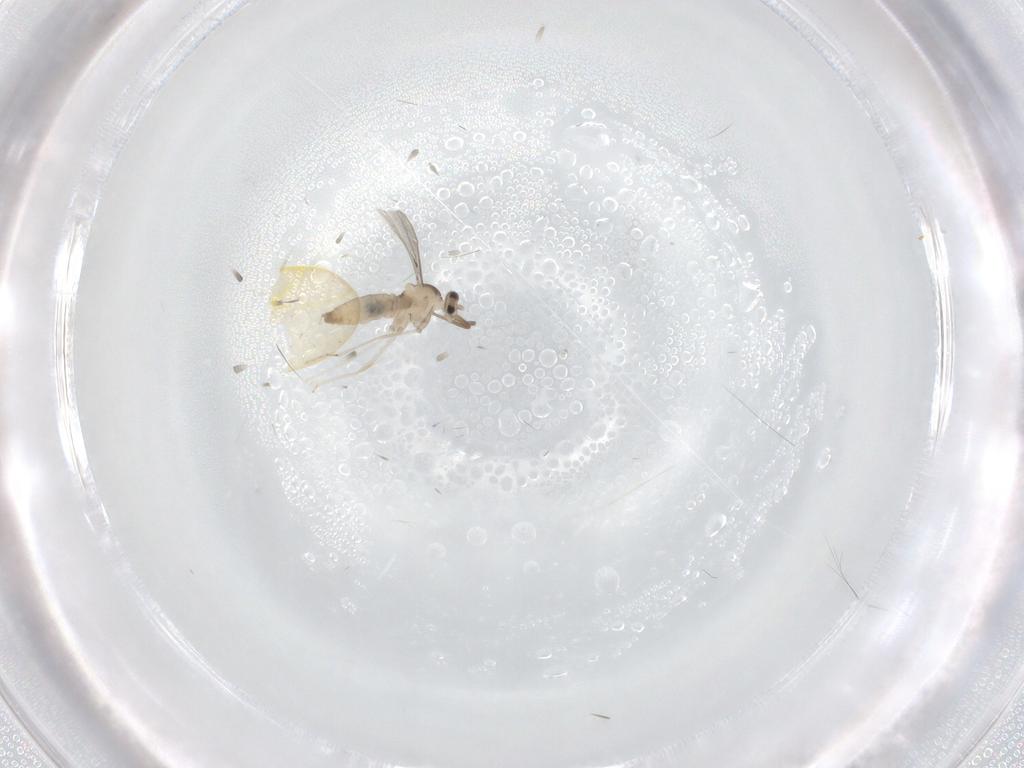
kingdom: Animalia
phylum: Arthropoda
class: Insecta
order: Diptera
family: Cecidomyiidae
